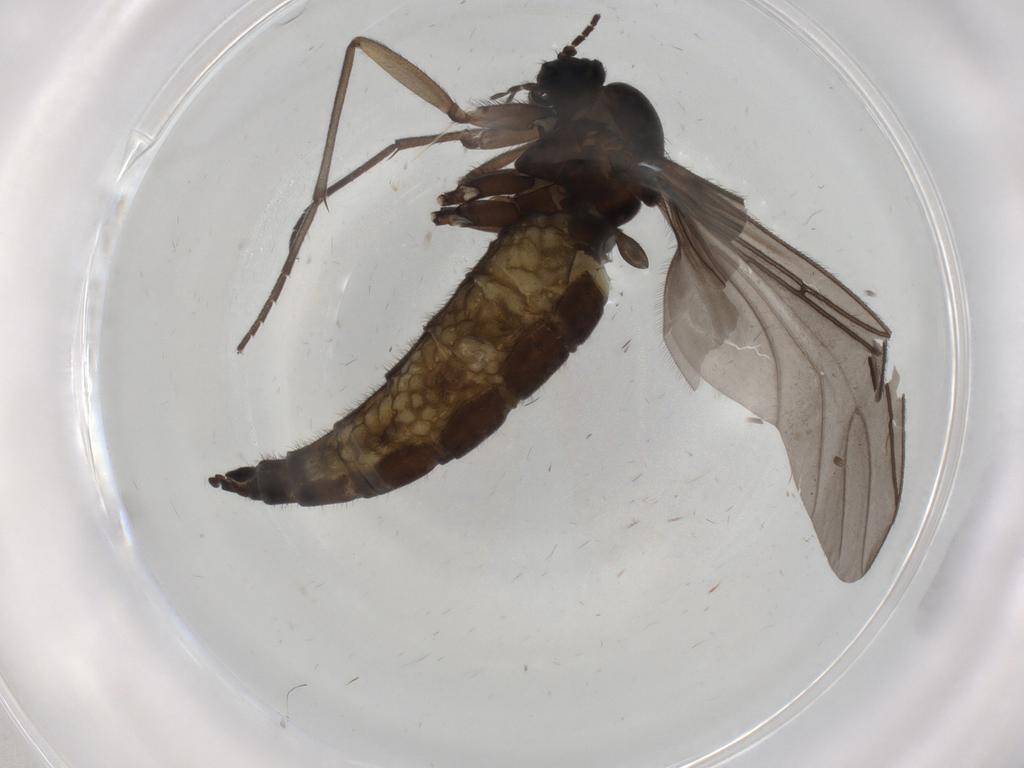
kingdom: Animalia
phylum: Arthropoda
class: Insecta
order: Diptera
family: Sciaridae
